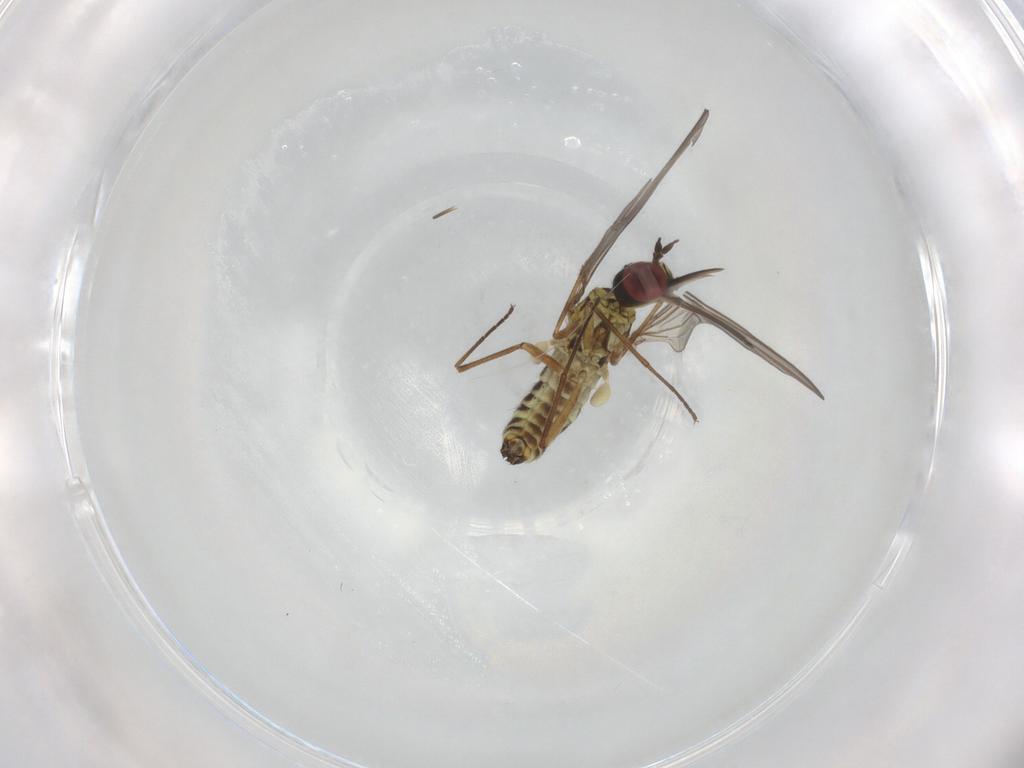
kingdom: Animalia
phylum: Arthropoda
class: Insecta
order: Diptera
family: Mythicomyiidae
